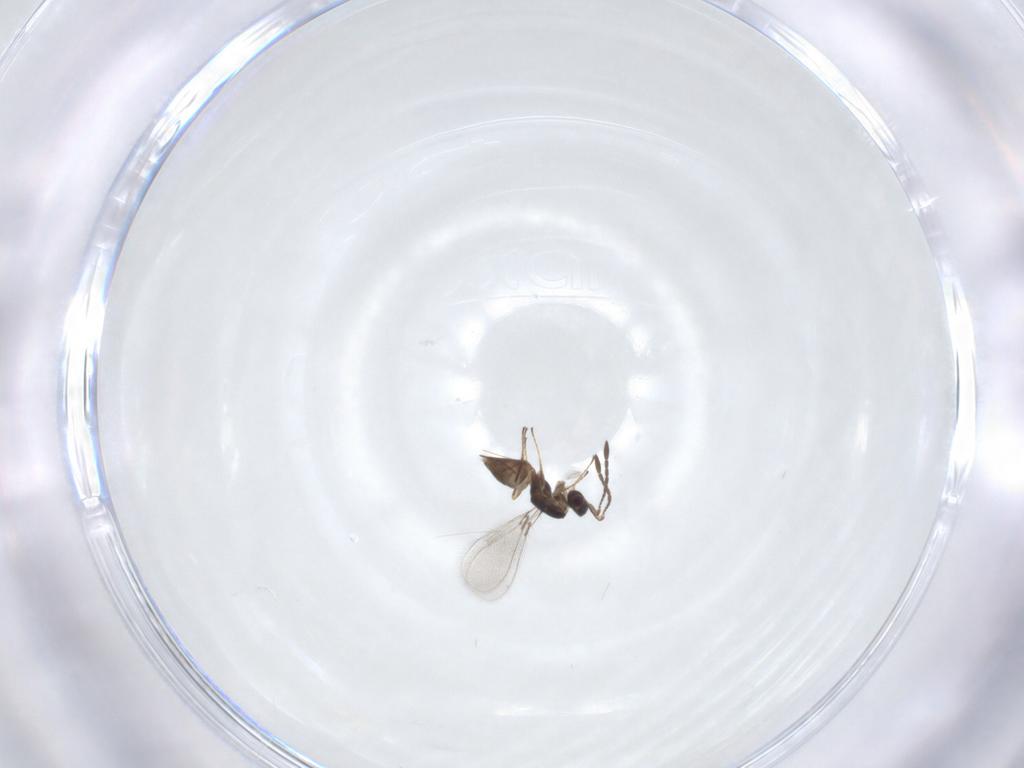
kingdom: Animalia
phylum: Arthropoda
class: Insecta
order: Hymenoptera
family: Mymaridae
